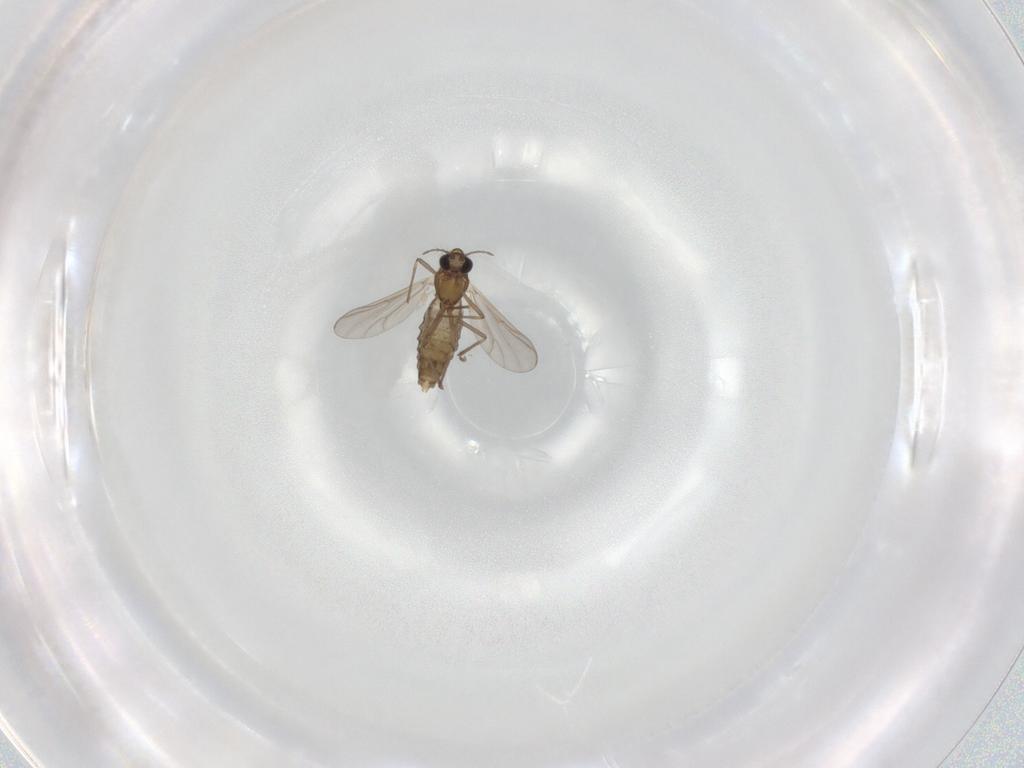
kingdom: Animalia
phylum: Arthropoda
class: Insecta
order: Diptera
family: Chironomidae
